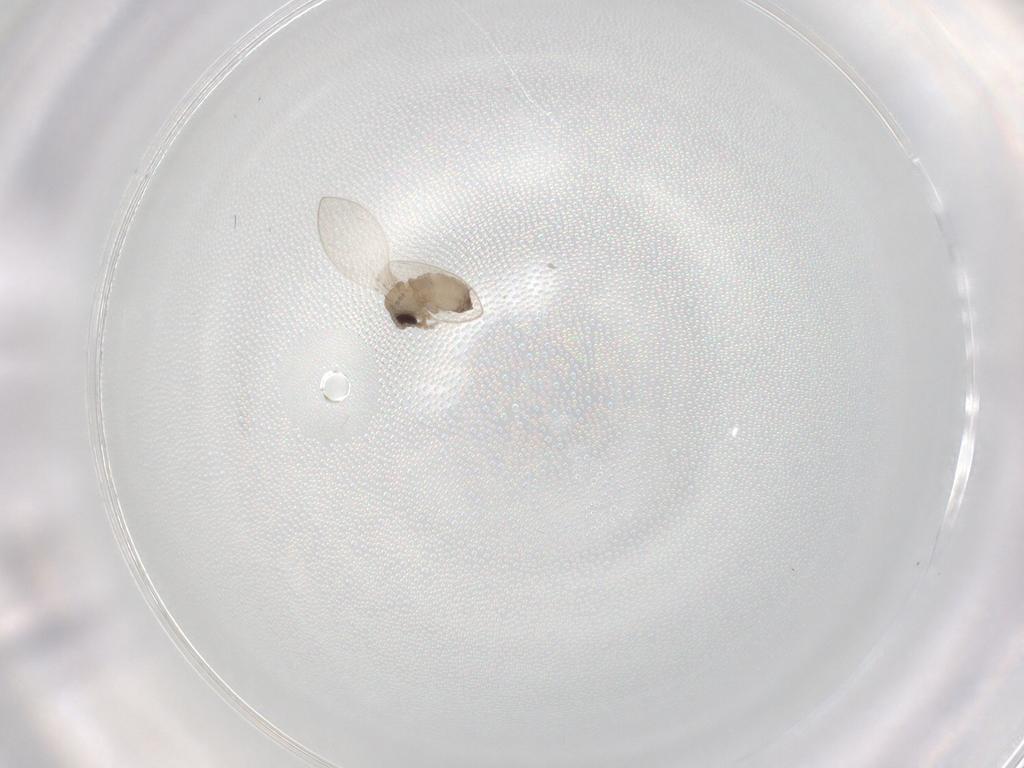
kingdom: Animalia
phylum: Arthropoda
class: Insecta
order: Diptera
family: Psychodidae
